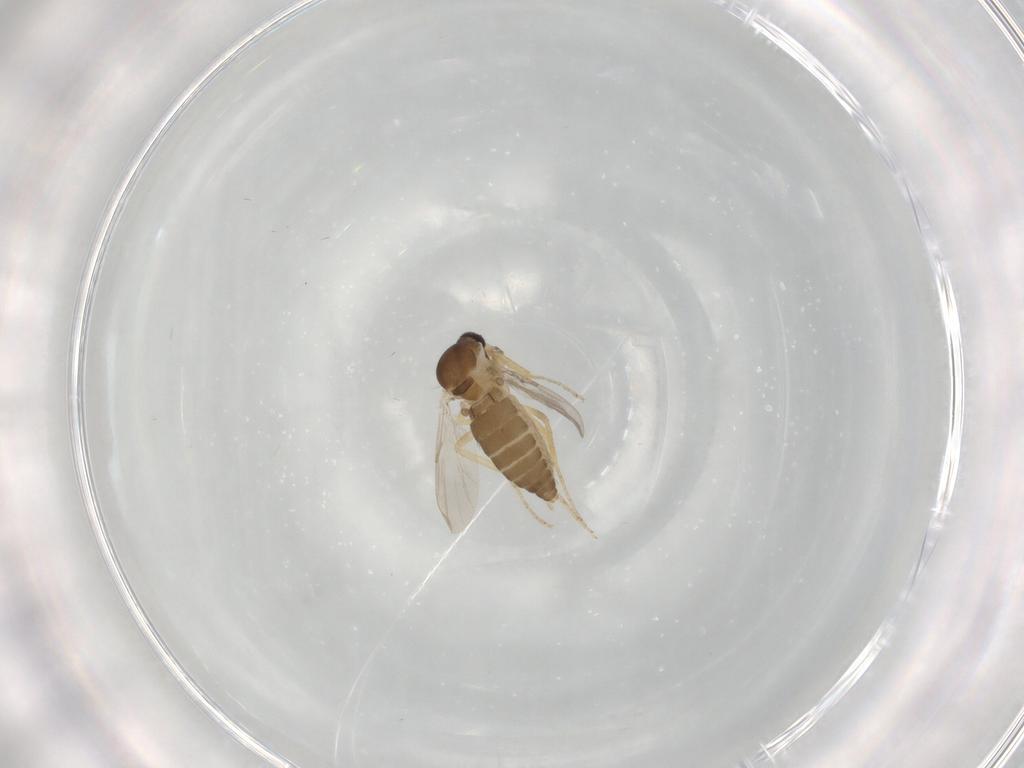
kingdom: Animalia
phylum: Arthropoda
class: Insecta
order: Diptera
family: Ceratopogonidae
